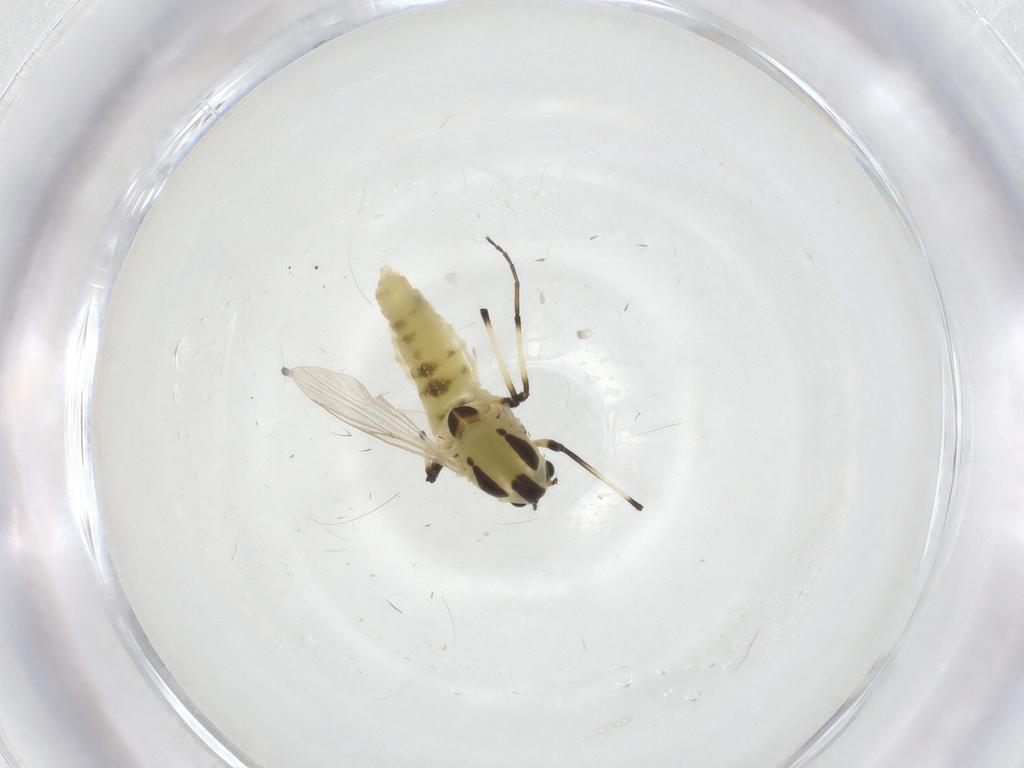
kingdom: Animalia
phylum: Arthropoda
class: Insecta
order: Diptera
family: Chironomidae
